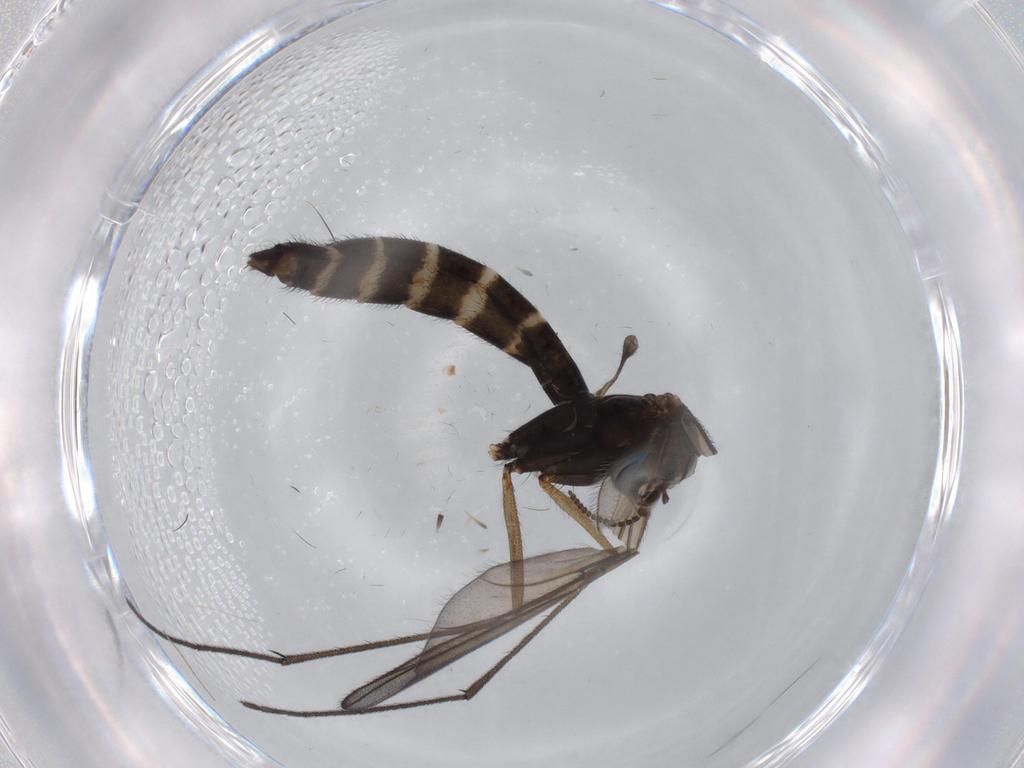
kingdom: Animalia
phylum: Arthropoda
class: Insecta
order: Diptera
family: Ditomyiidae
